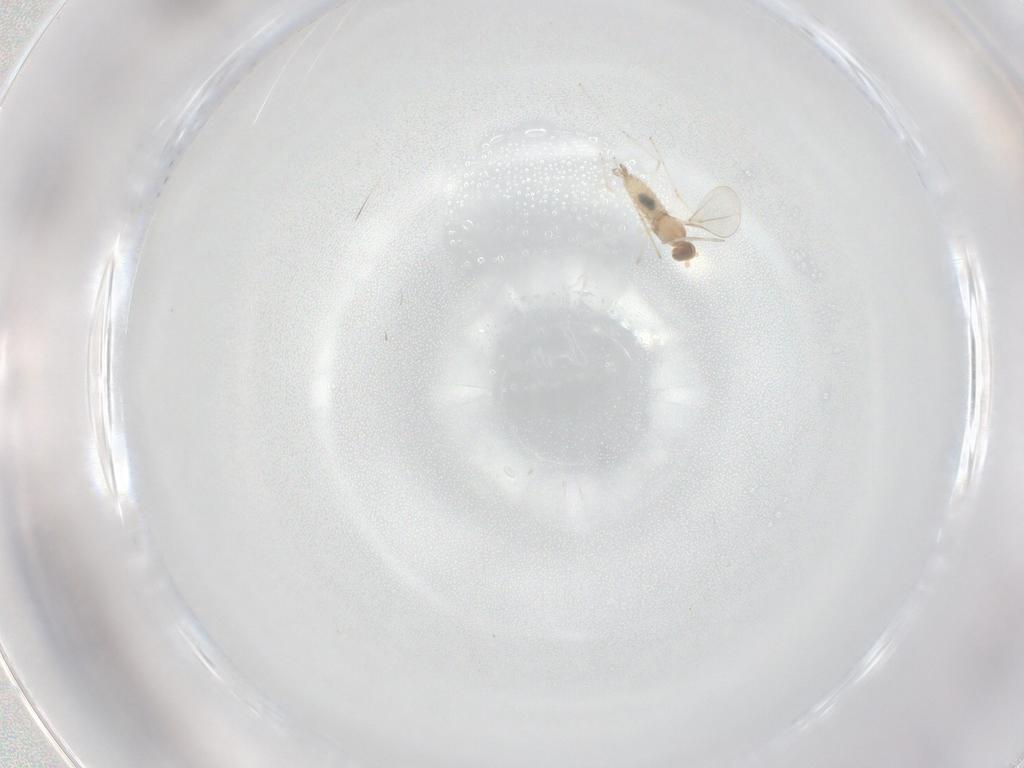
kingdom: Animalia
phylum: Arthropoda
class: Insecta
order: Diptera
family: Cecidomyiidae
